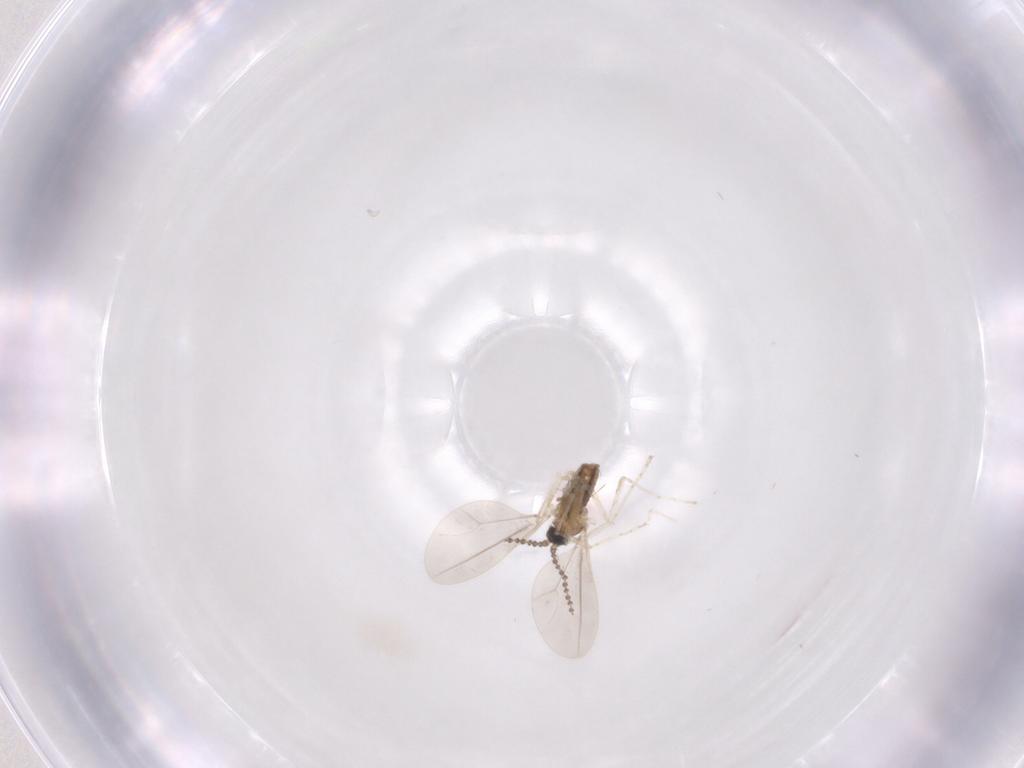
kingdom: Animalia
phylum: Arthropoda
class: Insecta
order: Diptera
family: Cecidomyiidae
